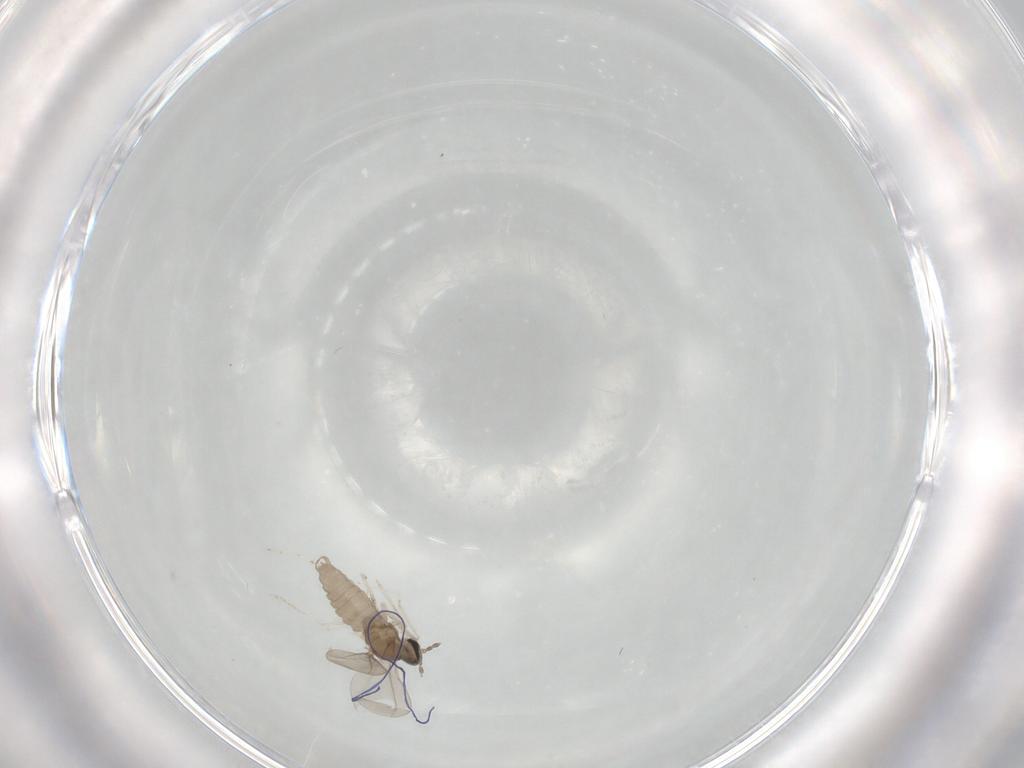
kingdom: Animalia
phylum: Arthropoda
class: Insecta
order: Diptera
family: Cecidomyiidae
